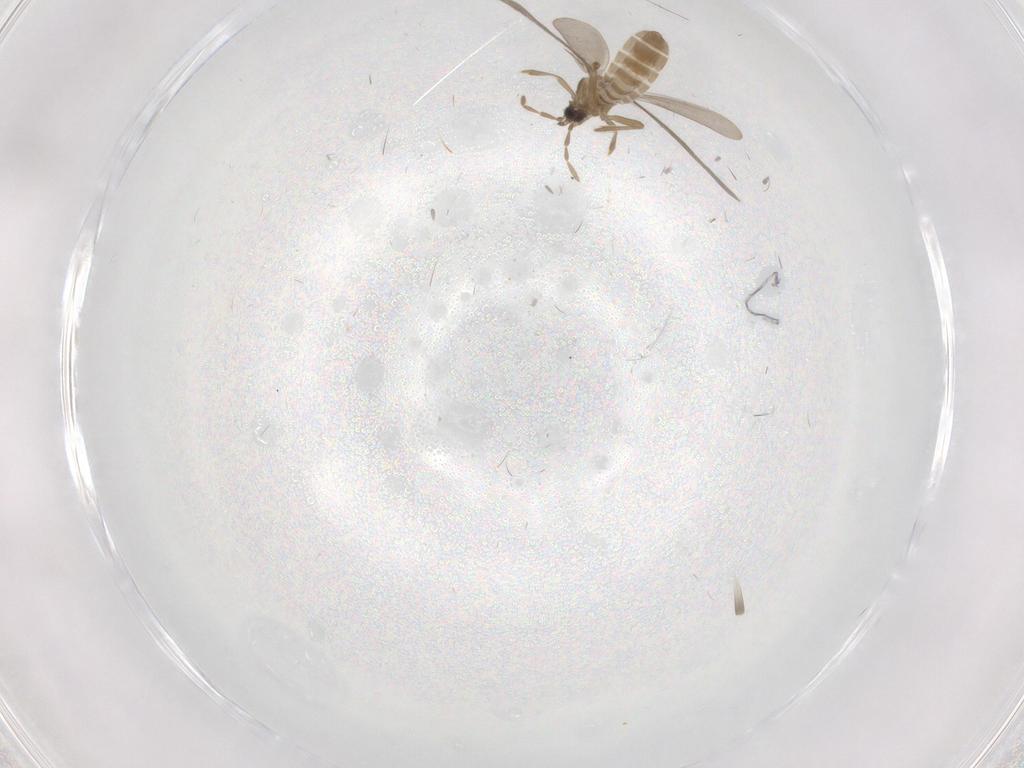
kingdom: Animalia
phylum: Arthropoda
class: Insecta
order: Hemiptera
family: Enicocephalidae
